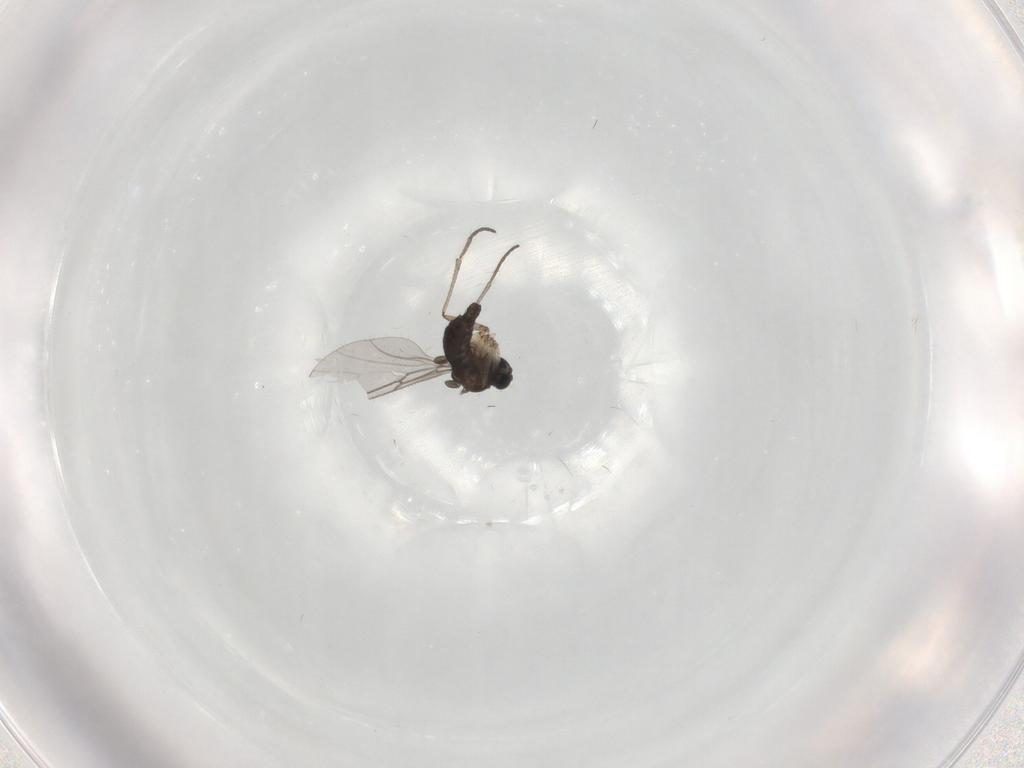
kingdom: Animalia
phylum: Arthropoda
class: Insecta
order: Diptera
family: Sciaridae
